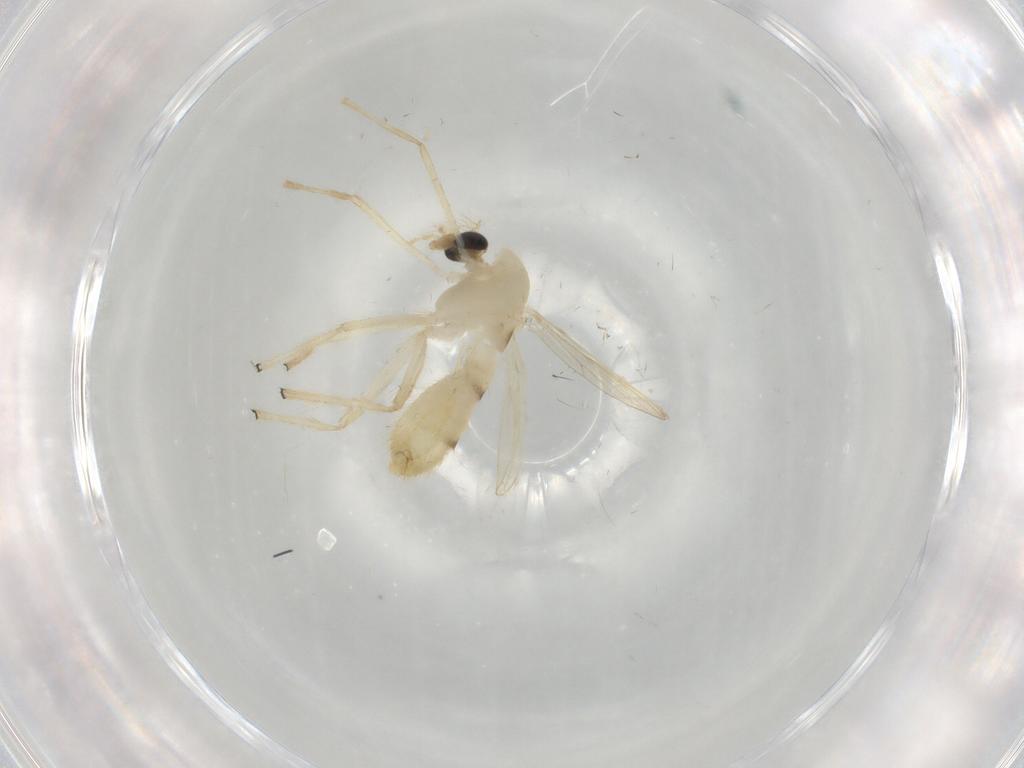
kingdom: Animalia
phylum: Arthropoda
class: Insecta
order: Diptera
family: Chironomidae
